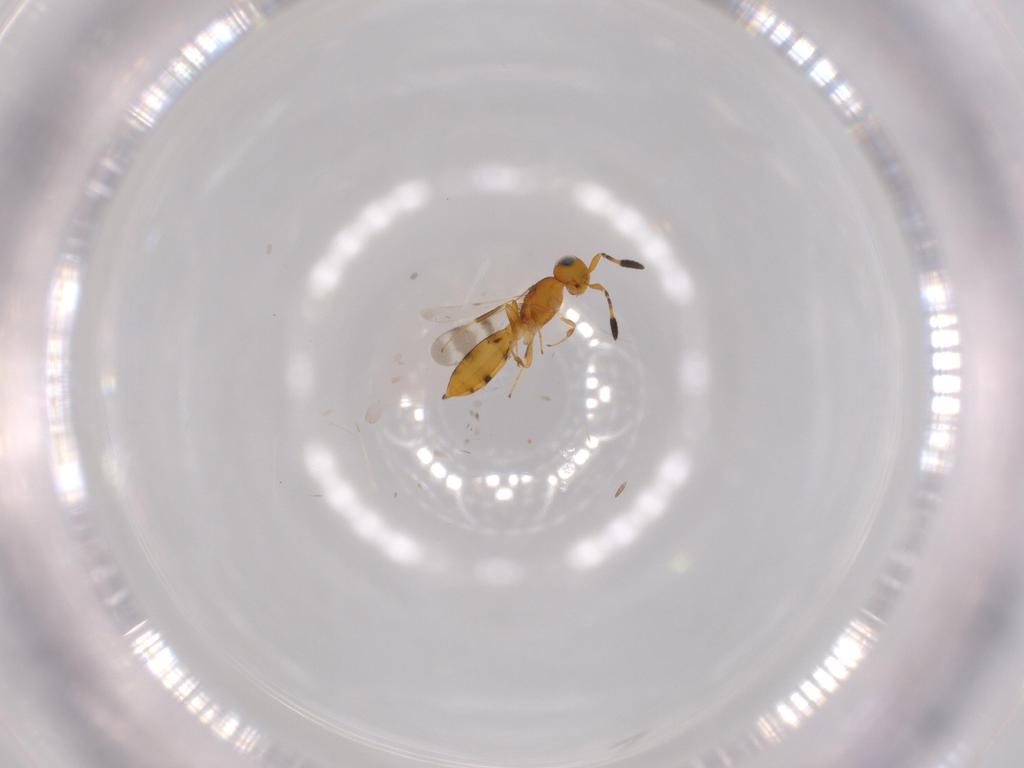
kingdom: Animalia
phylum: Arthropoda
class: Insecta
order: Hymenoptera
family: Scelionidae
